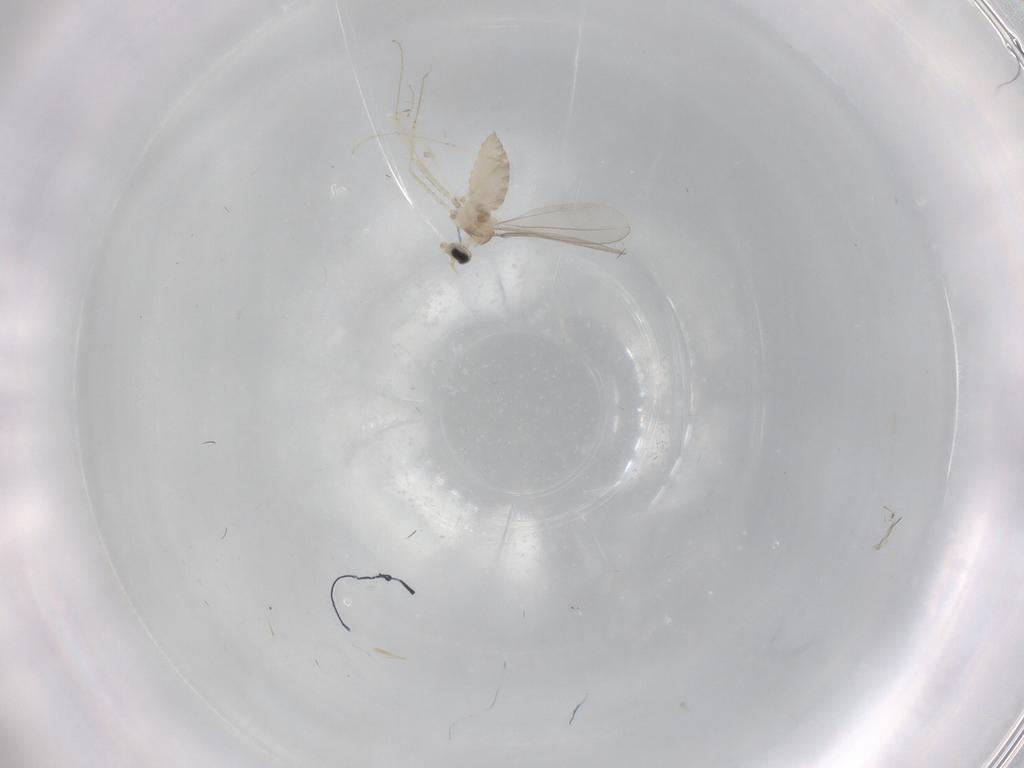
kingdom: Animalia
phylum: Arthropoda
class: Insecta
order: Diptera
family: Cecidomyiidae
